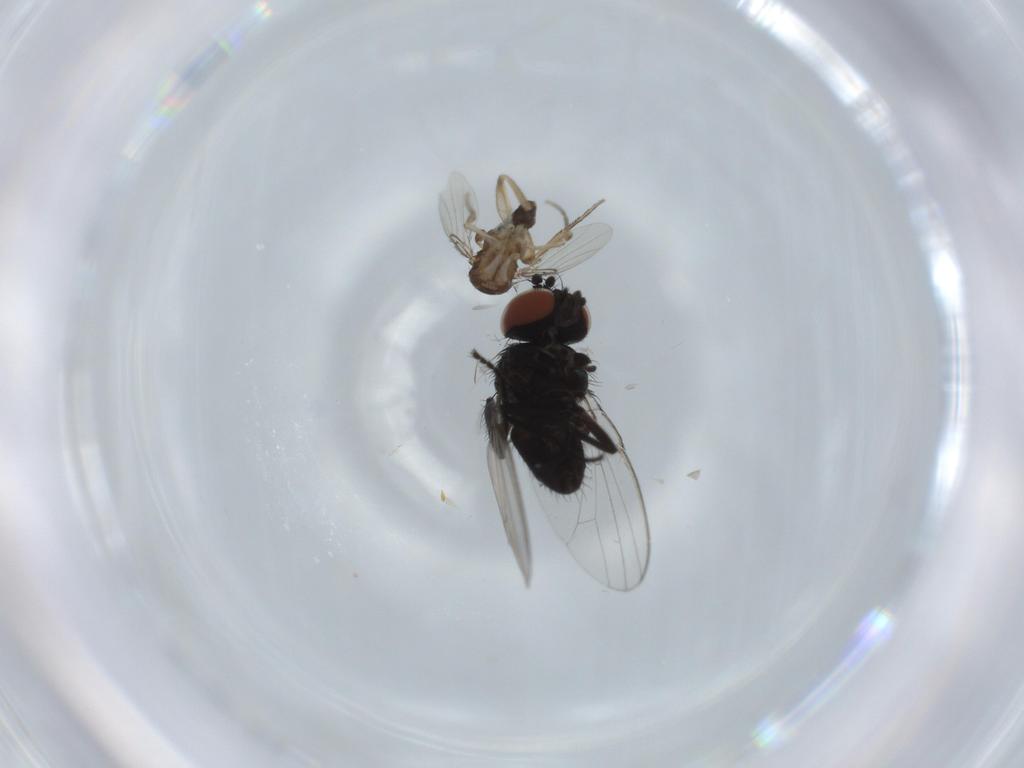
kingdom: Animalia
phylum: Arthropoda
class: Insecta
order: Diptera
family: Phoridae
